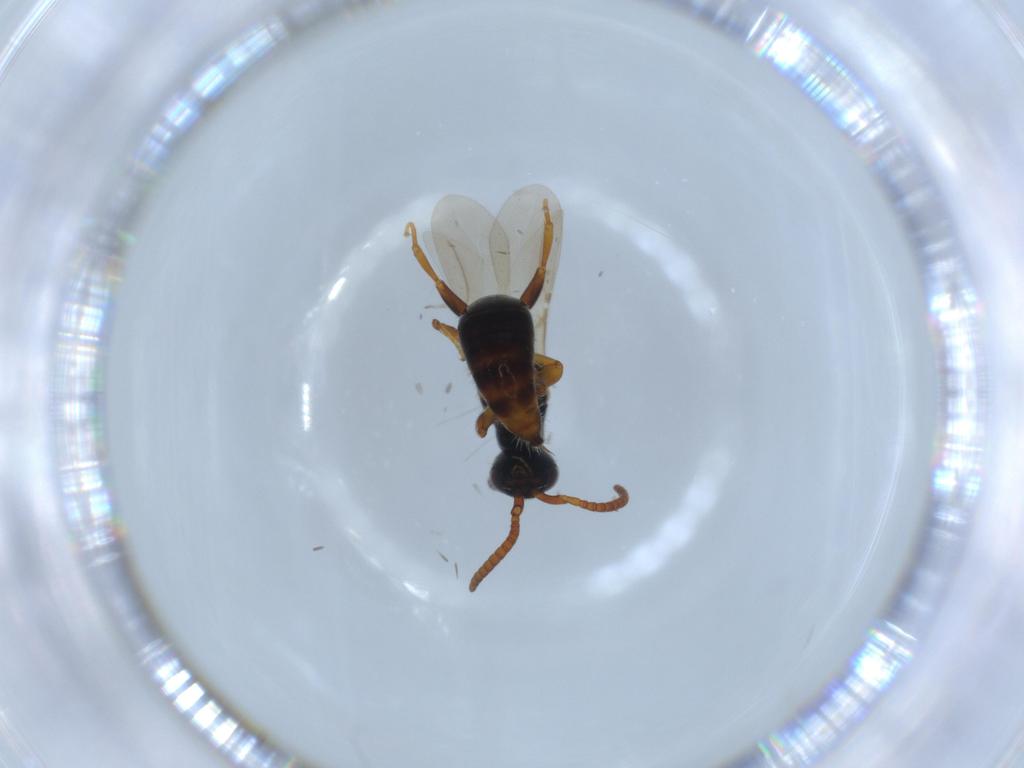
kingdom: Animalia
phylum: Arthropoda
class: Insecta
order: Hymenoptera
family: Bethylidae
